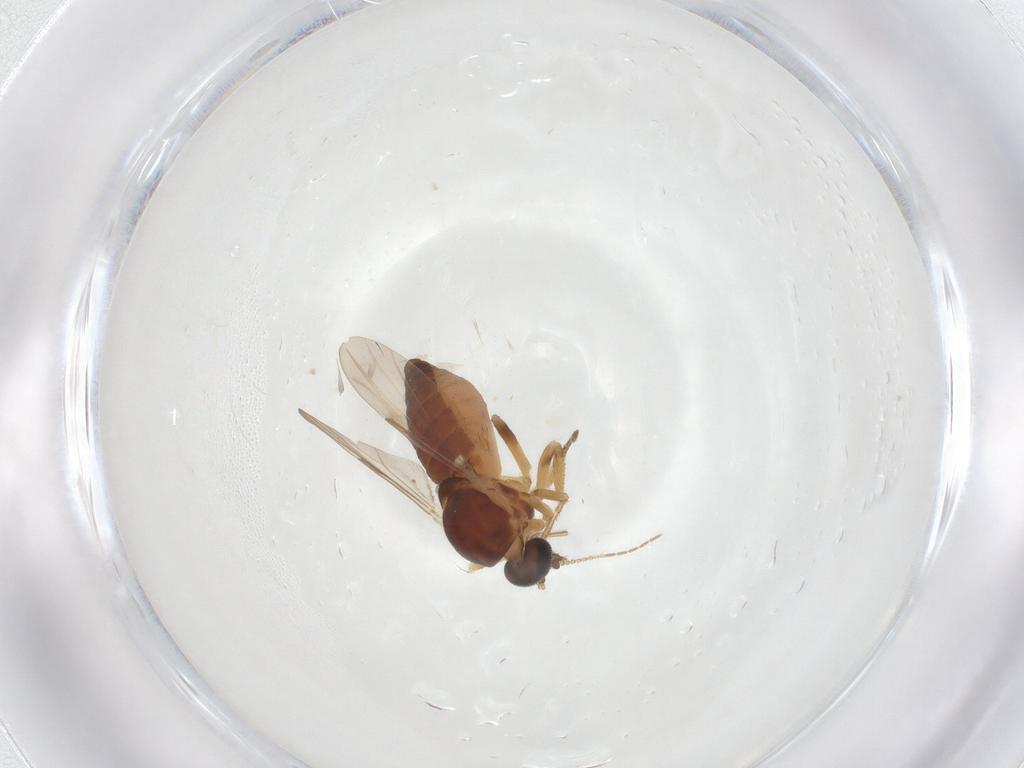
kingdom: Animalia
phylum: Arthropoda
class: Insecta
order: Diptera
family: Ceratopogonidae
